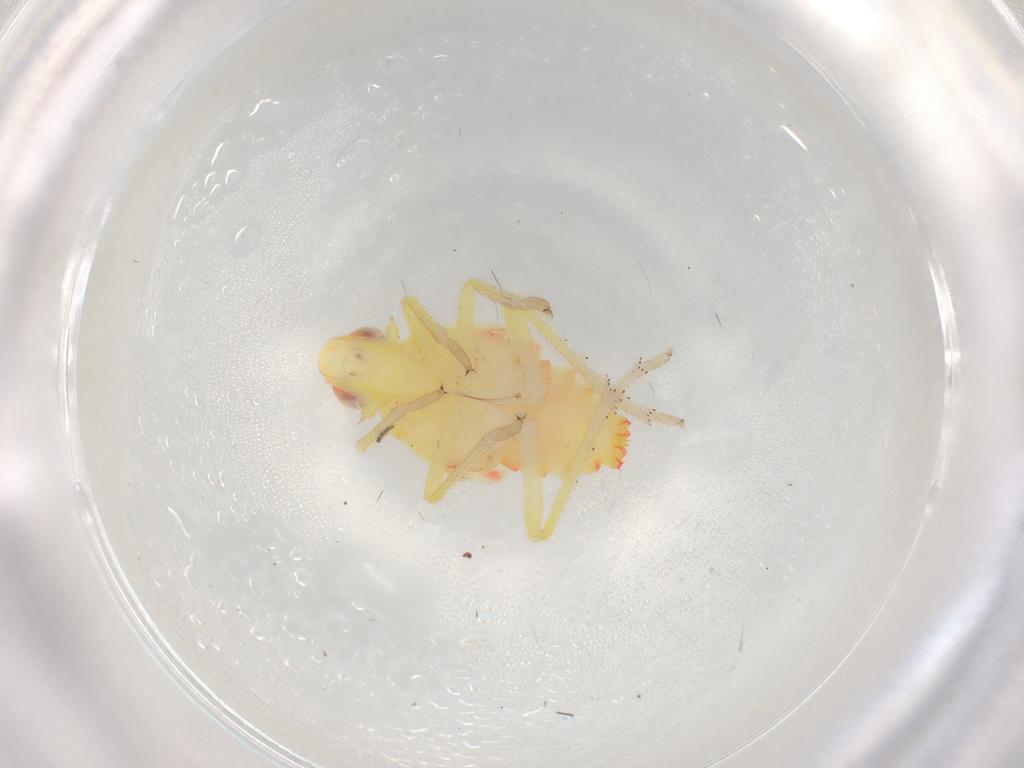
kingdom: Animalia
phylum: Arthropoda
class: Insecta
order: Hemiptera
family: Tropiduchidae
